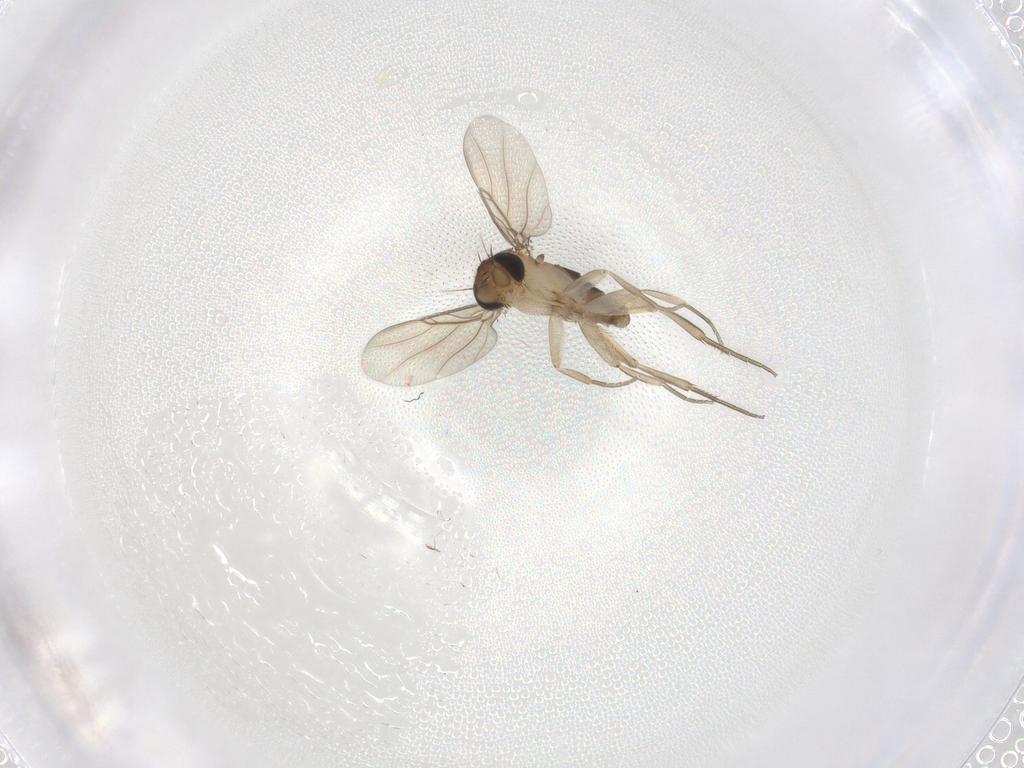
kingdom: Animalia
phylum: Arthropoda
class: Insecta
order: Diptera
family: Phoridae
